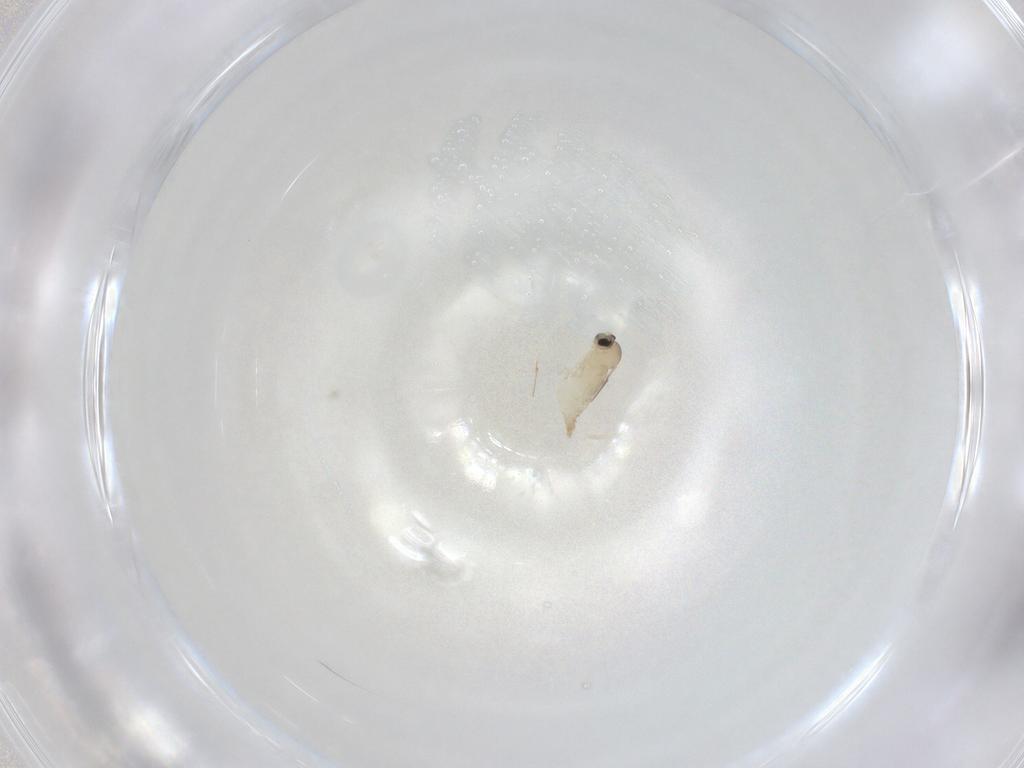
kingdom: Animalia
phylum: Arthropoda
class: Insecta
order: Diptera
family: Cecidomyiidae
